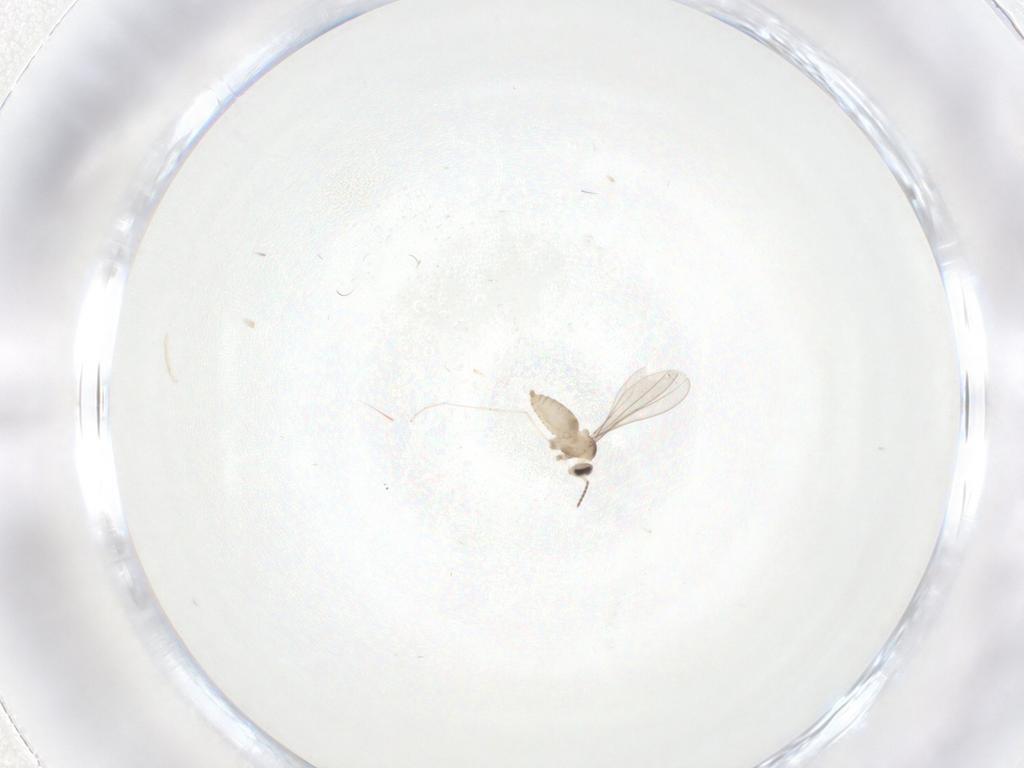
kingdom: Animalia
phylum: Arthropoda
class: Insecta
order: Diptera
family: Cecidomyiidae
